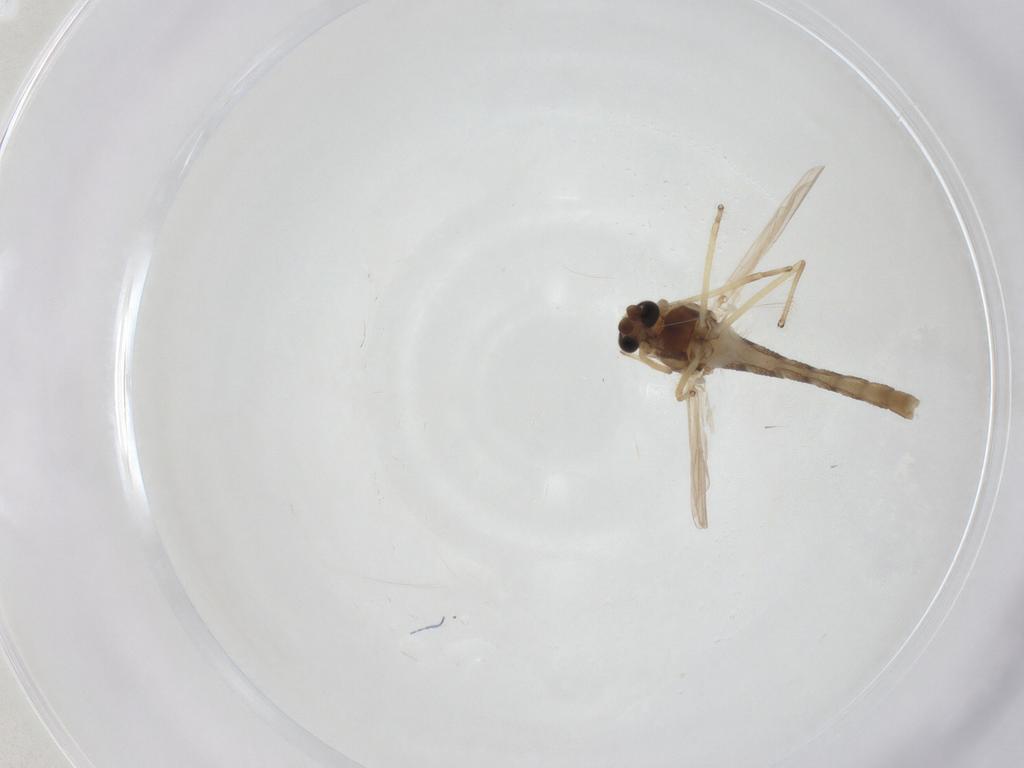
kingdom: Animalia
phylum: Arthropoda
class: Insecta
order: Diptera
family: Chironomidae
